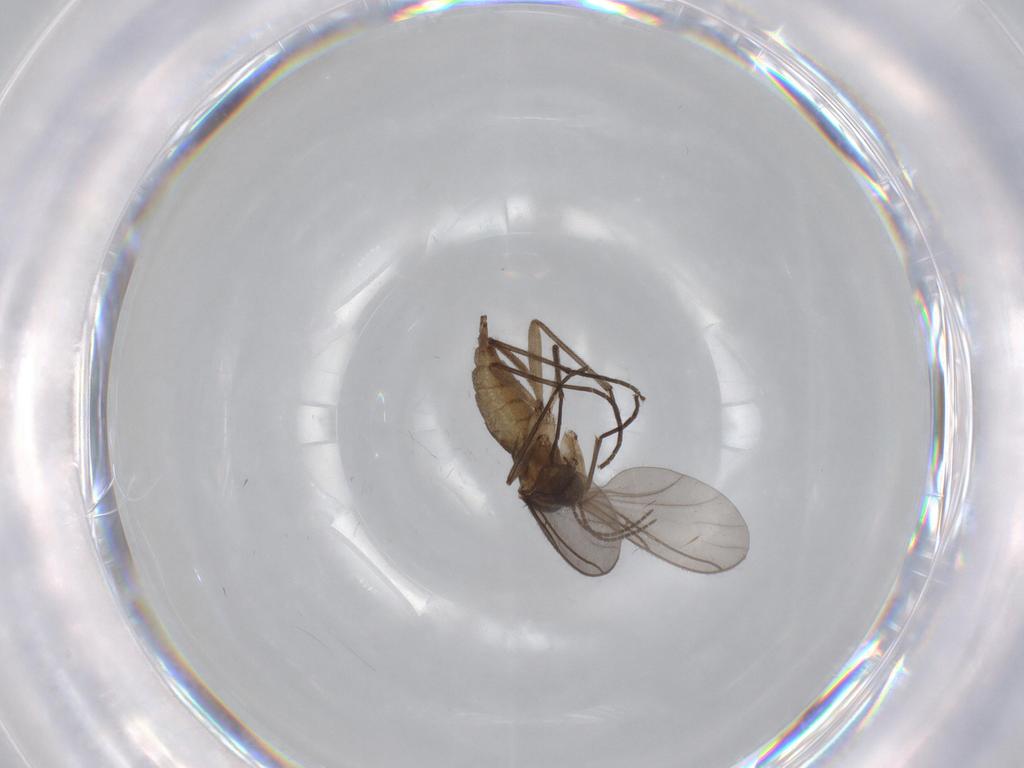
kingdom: Animalia
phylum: Arthropoda
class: Insecta
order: Diptera
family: Sciaridae
